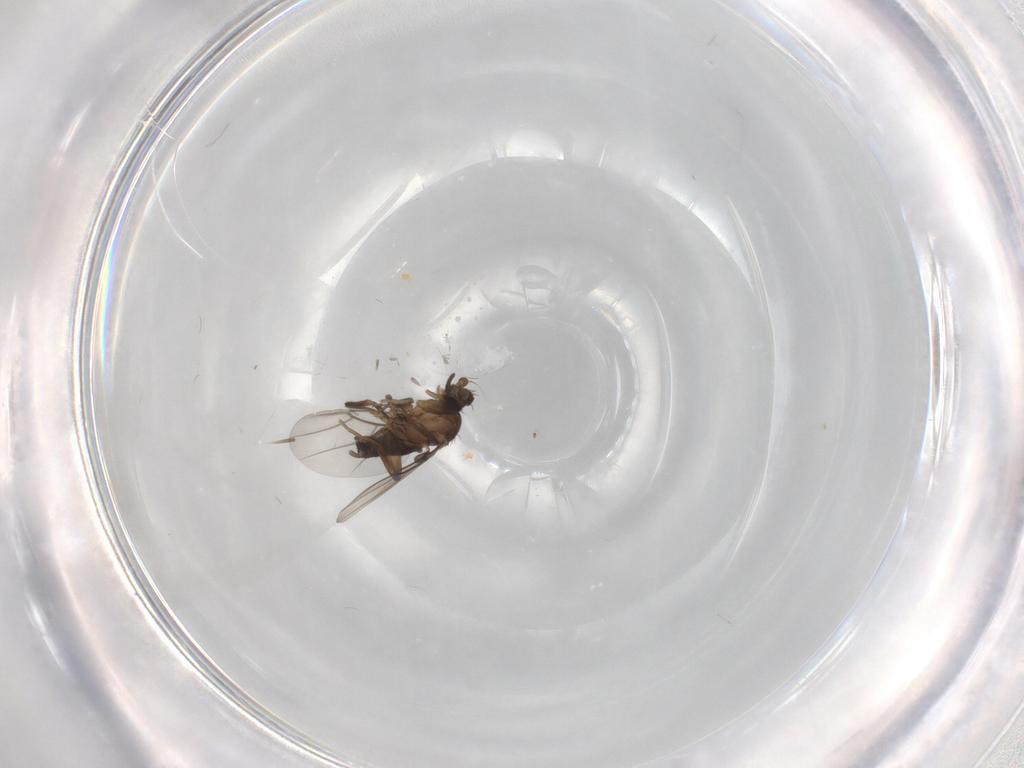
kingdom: Animalia
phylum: Arthropoda
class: Insecta
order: Diptera
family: Phoridae
